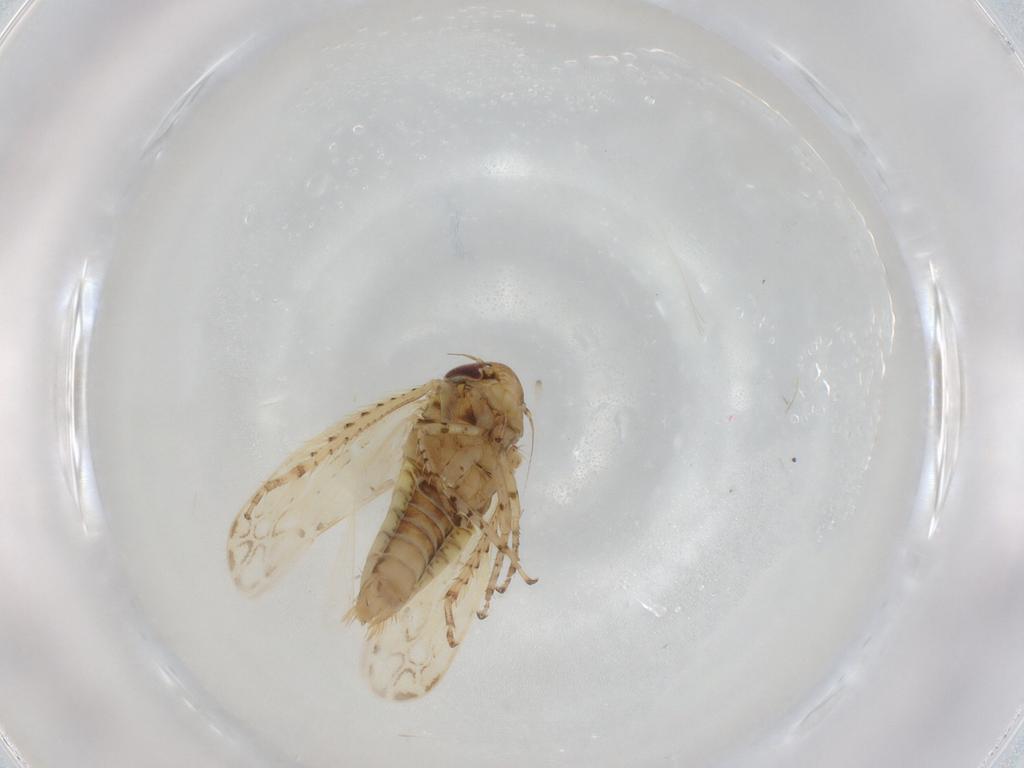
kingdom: Animalia
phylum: Arthropoda
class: Insecta
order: Hemiptera
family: Cicadellidae
